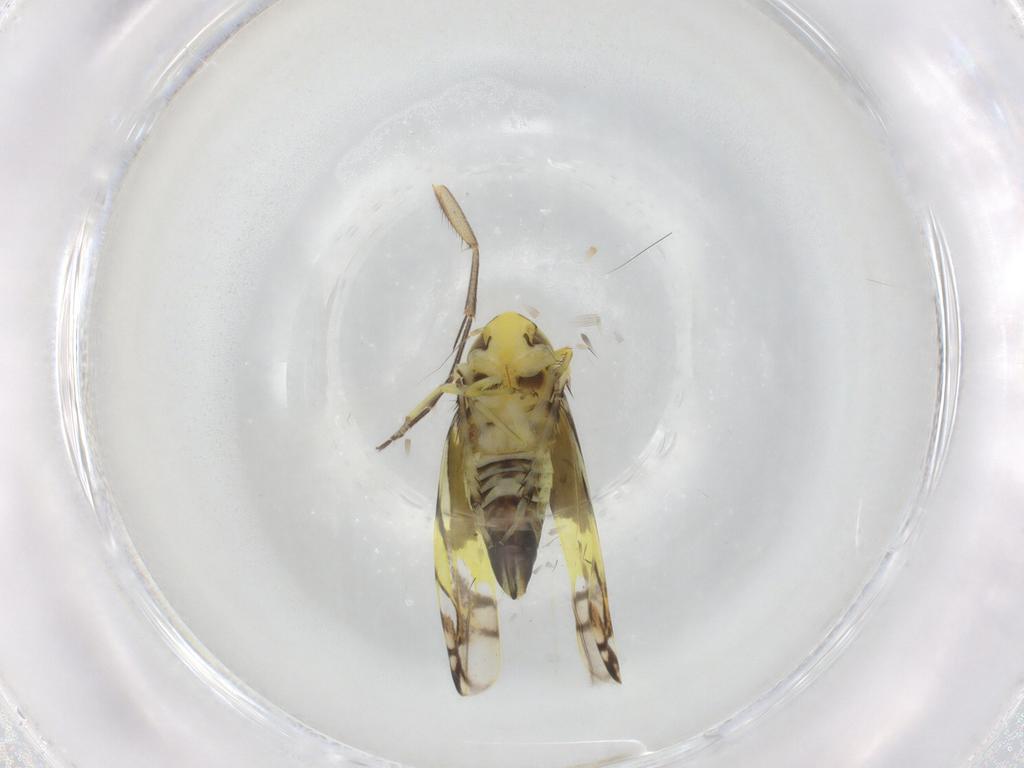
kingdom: Animalia
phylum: Arthropoda
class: Insecta
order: Hemiptera
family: Cicadellidae
